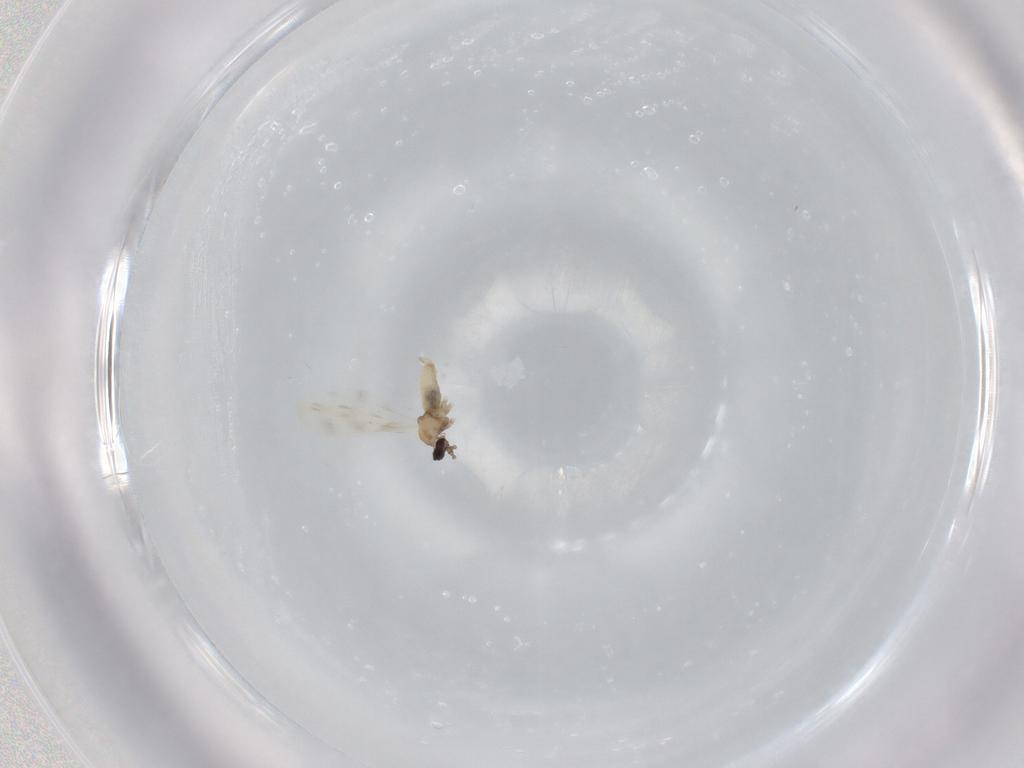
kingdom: Animalia
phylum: Arthropoda
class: Insecta
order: Diptera
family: Cecidomyiidae
